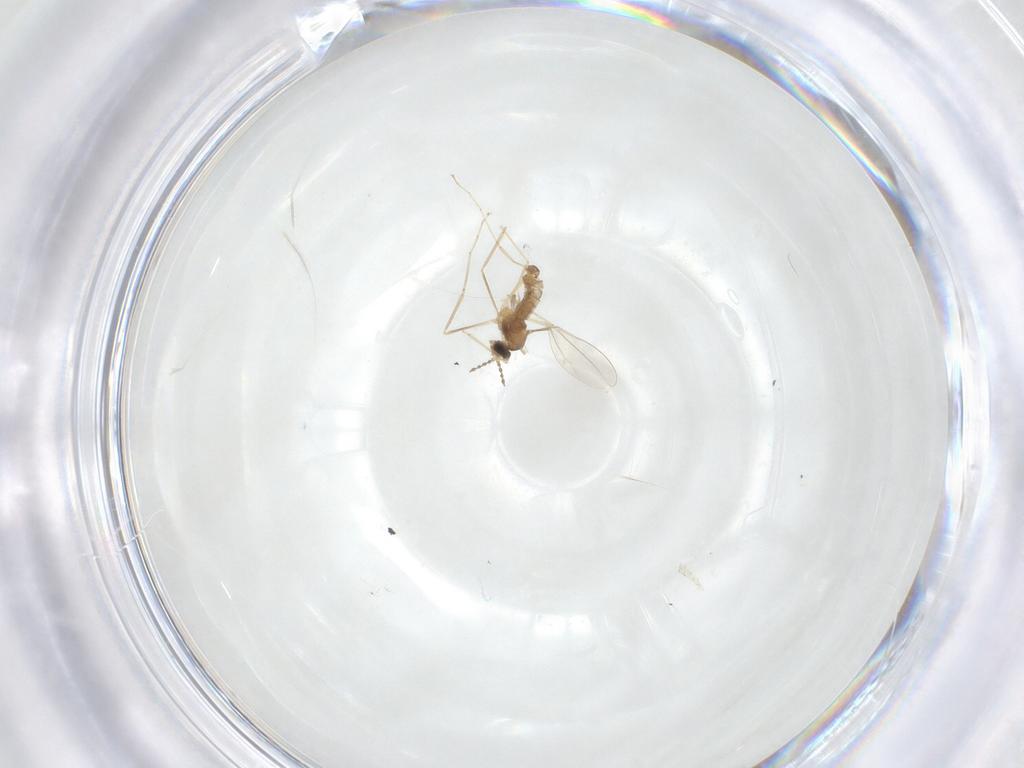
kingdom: Animalia
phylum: Arthropoda
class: Insecta
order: Diptera
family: Cecidomyiidae
